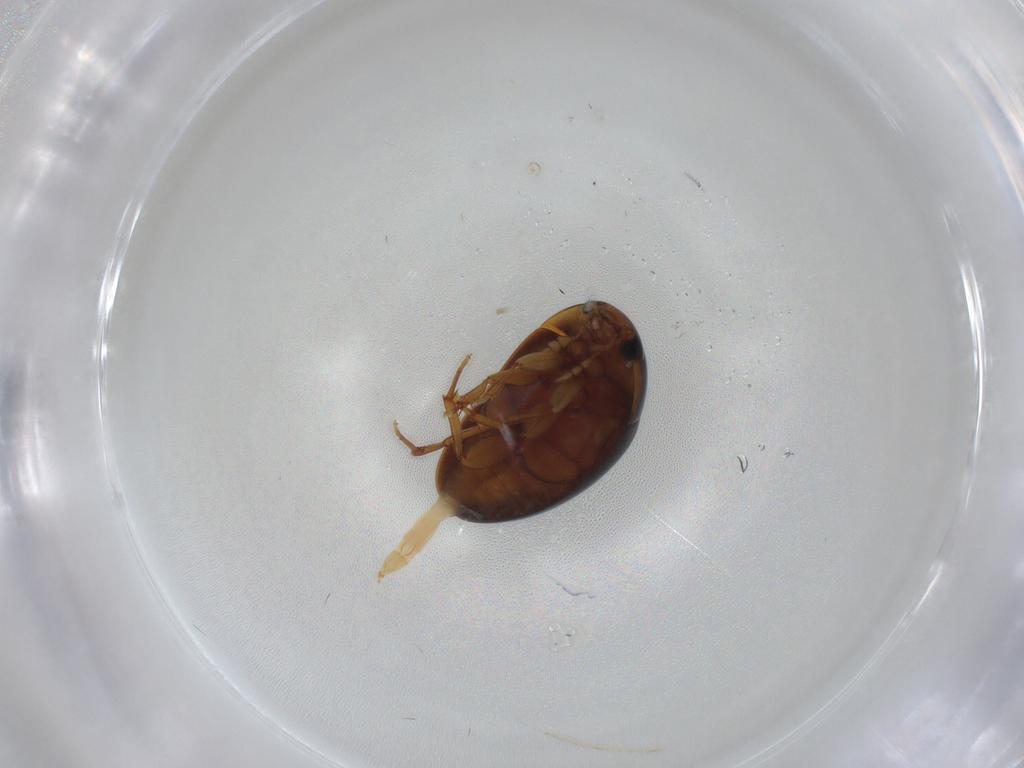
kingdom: Animalia
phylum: Arthropoda
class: Insecta
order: Coleoptera
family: Phalacridae
